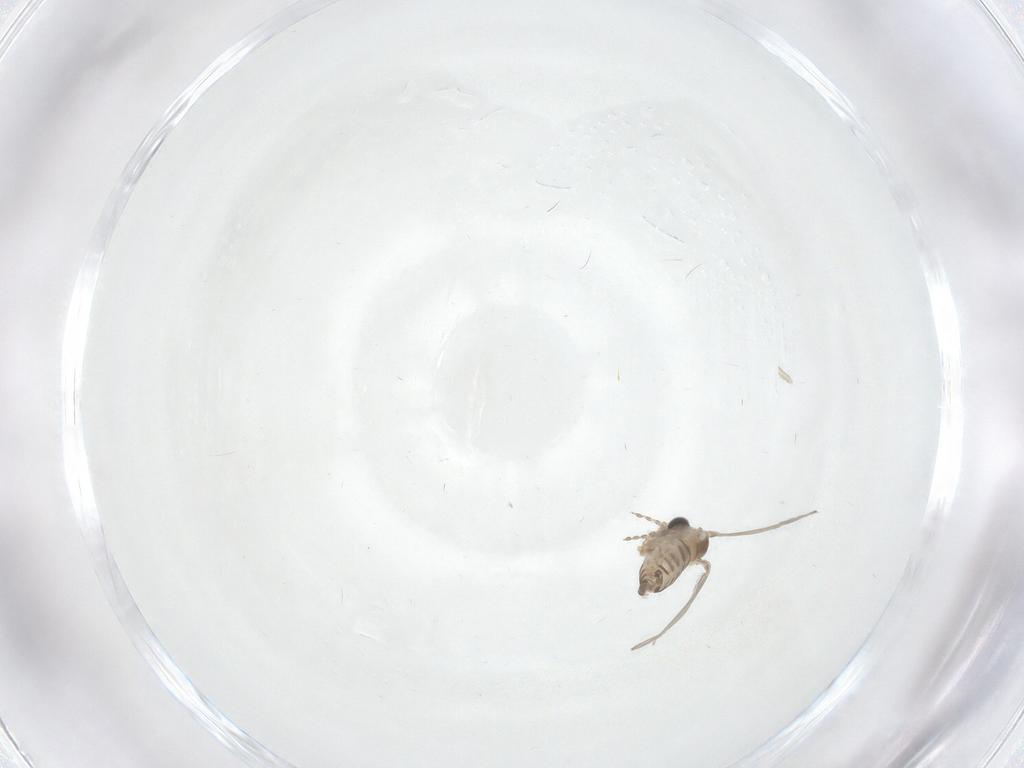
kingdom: Animalia
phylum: Arthropoda
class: Insecta
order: Diptera
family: Phoridae
